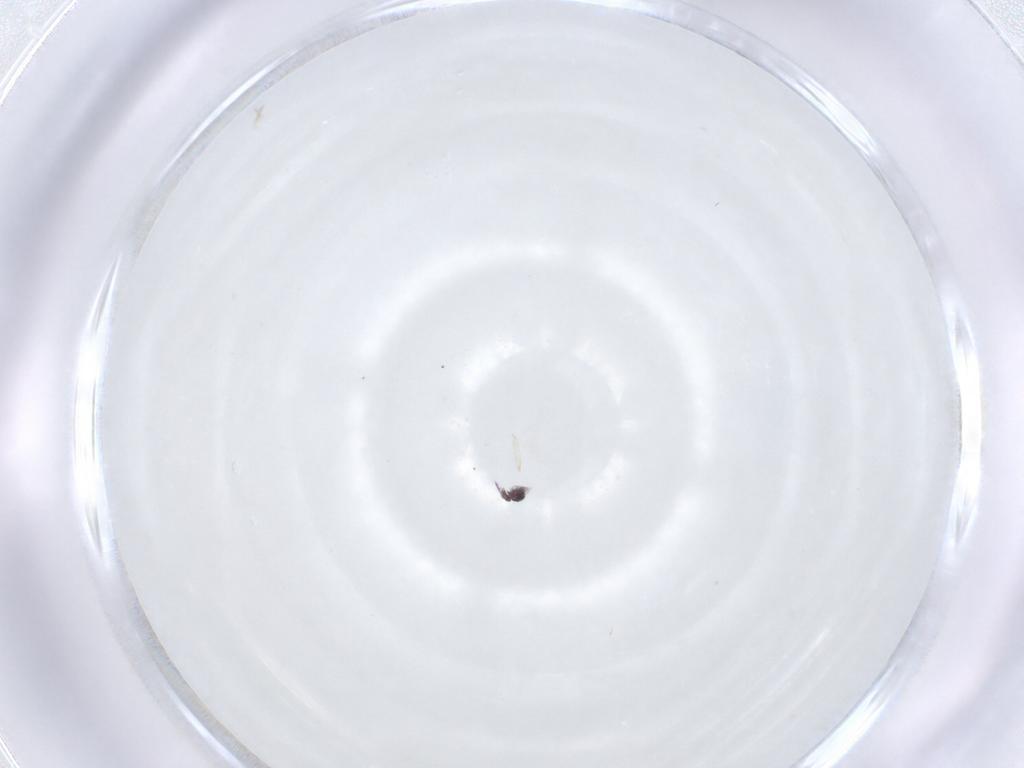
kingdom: Animalia
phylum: Arthropoda
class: Collembola
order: Symphypleona
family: Sminthurididae
